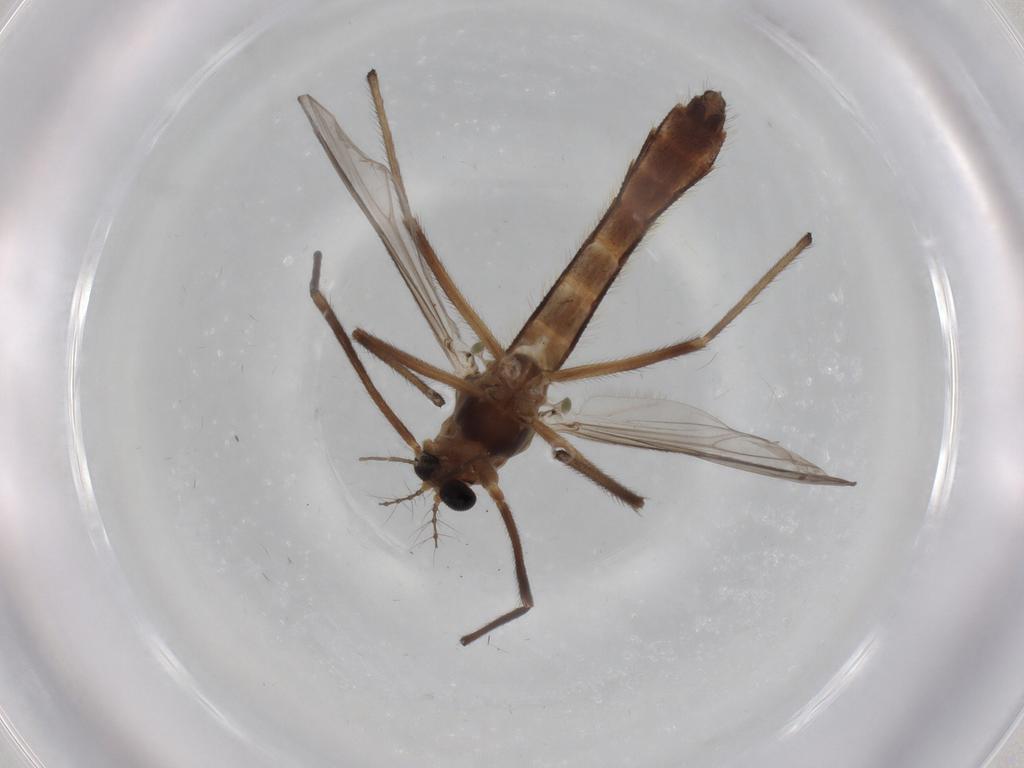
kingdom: Animalia
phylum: Arthropoda
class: Insecta
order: Diptera
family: Chironomidae
